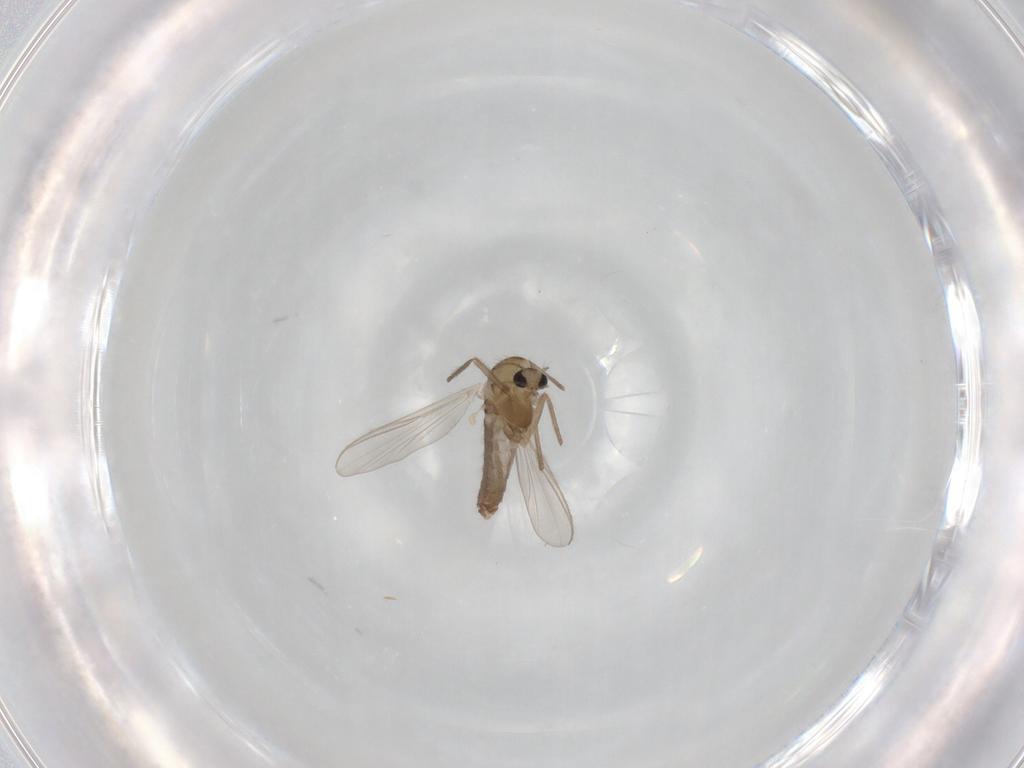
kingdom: Animalia
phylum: Arthropoda
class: Insecta
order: Diptera
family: Chironomidae
